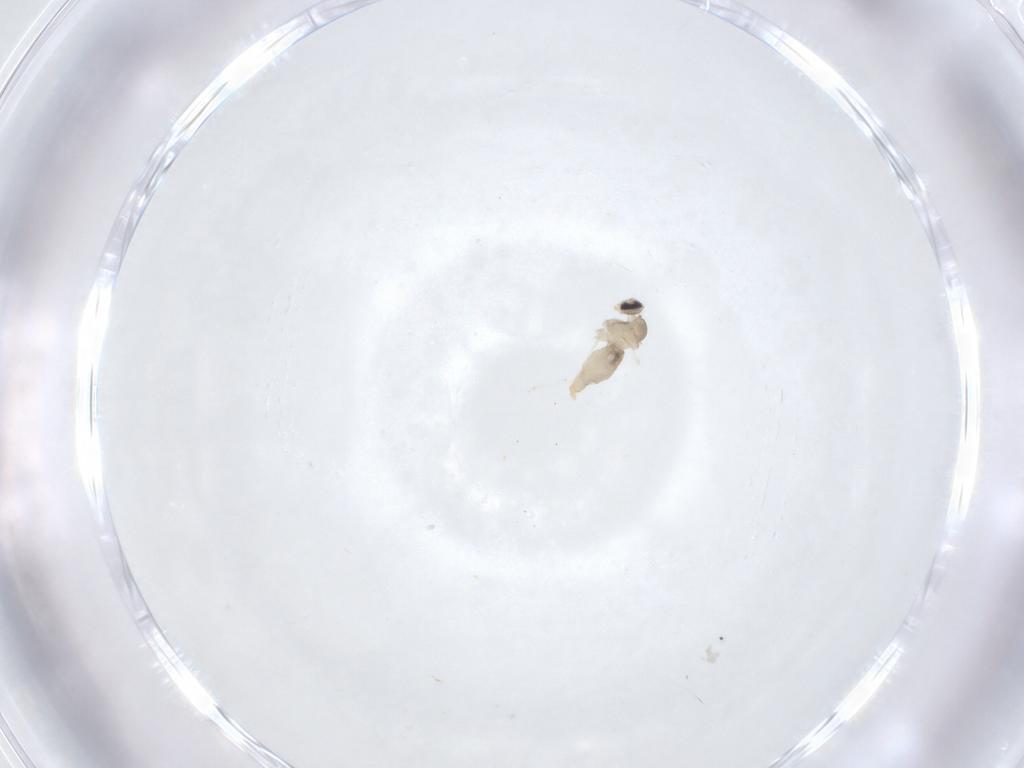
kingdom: Animalia
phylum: Arthropoda
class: Insecta
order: Diptera
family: Cecidomyiidae
